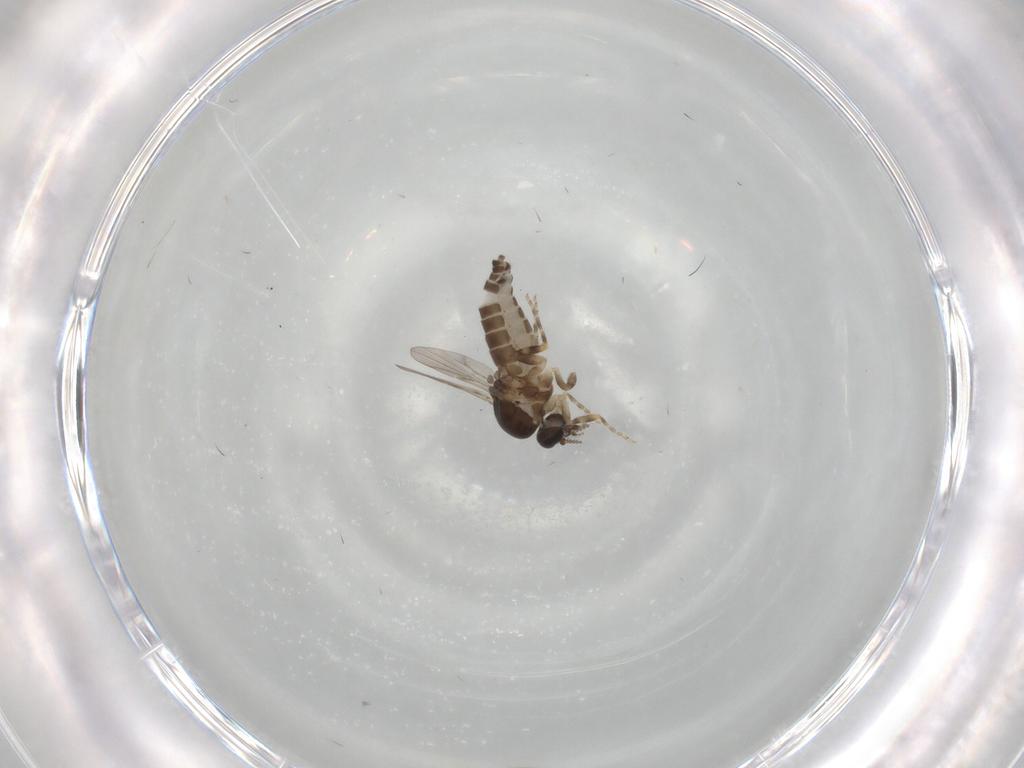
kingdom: Animalia
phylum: Arthropoda
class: Insecta
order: Diptera
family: Ceratopogonidae
